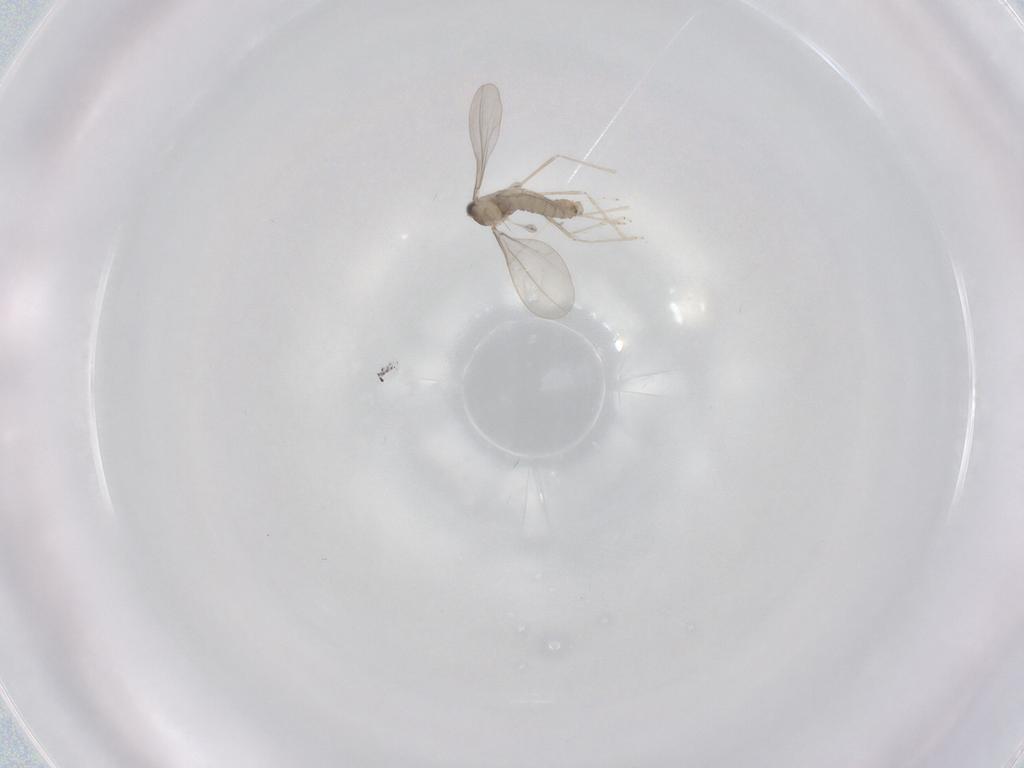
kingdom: Animalia
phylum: Arthropoda
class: Insecta
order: Diptera
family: Cecidomyiidae
